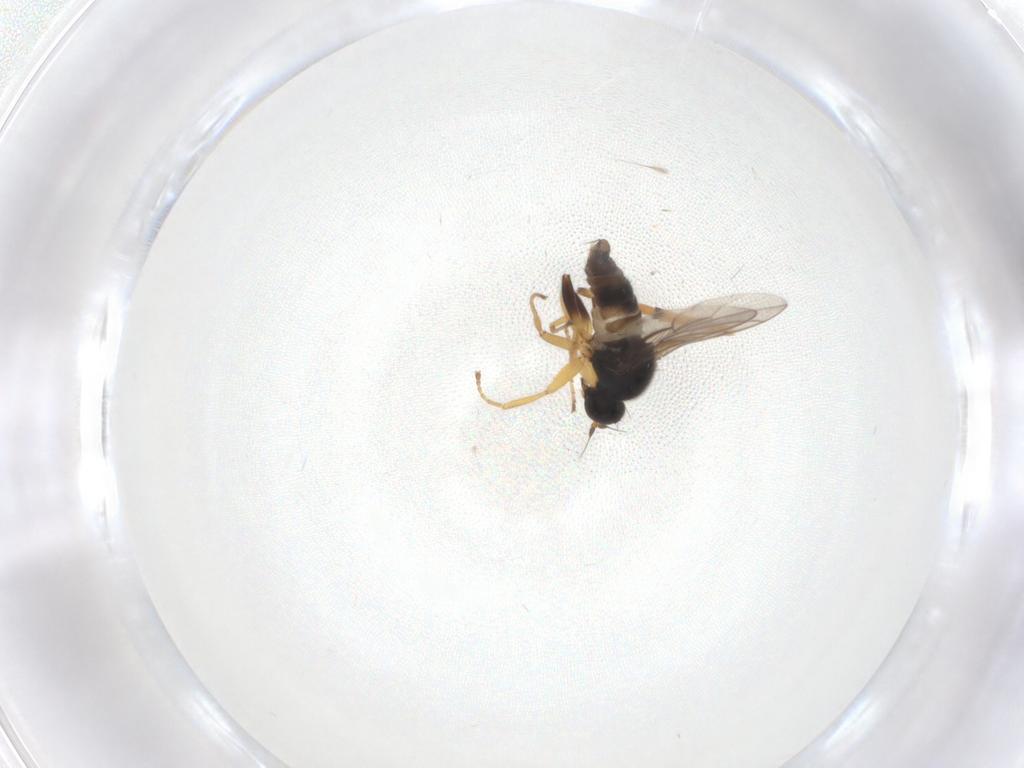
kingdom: Animalia
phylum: Arthropoda
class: Insecta
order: Diptera
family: Hybotidae
